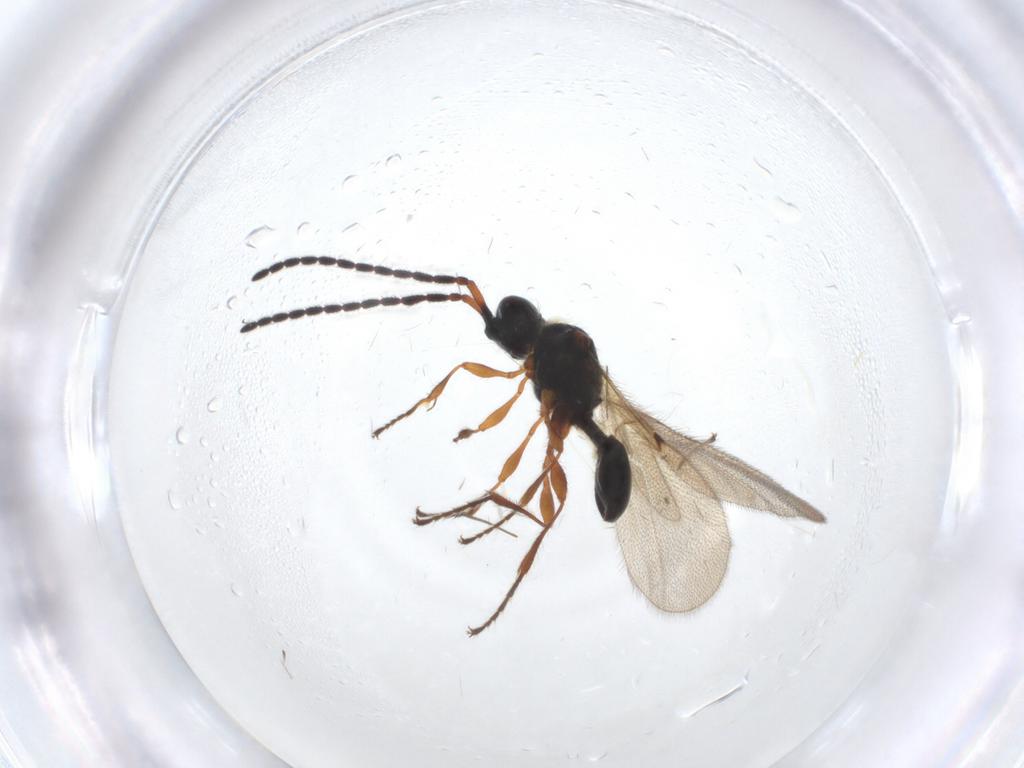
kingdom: Animalia
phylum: Arthropoda
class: Insecta
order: Hymenoptera
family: Diapriidae
